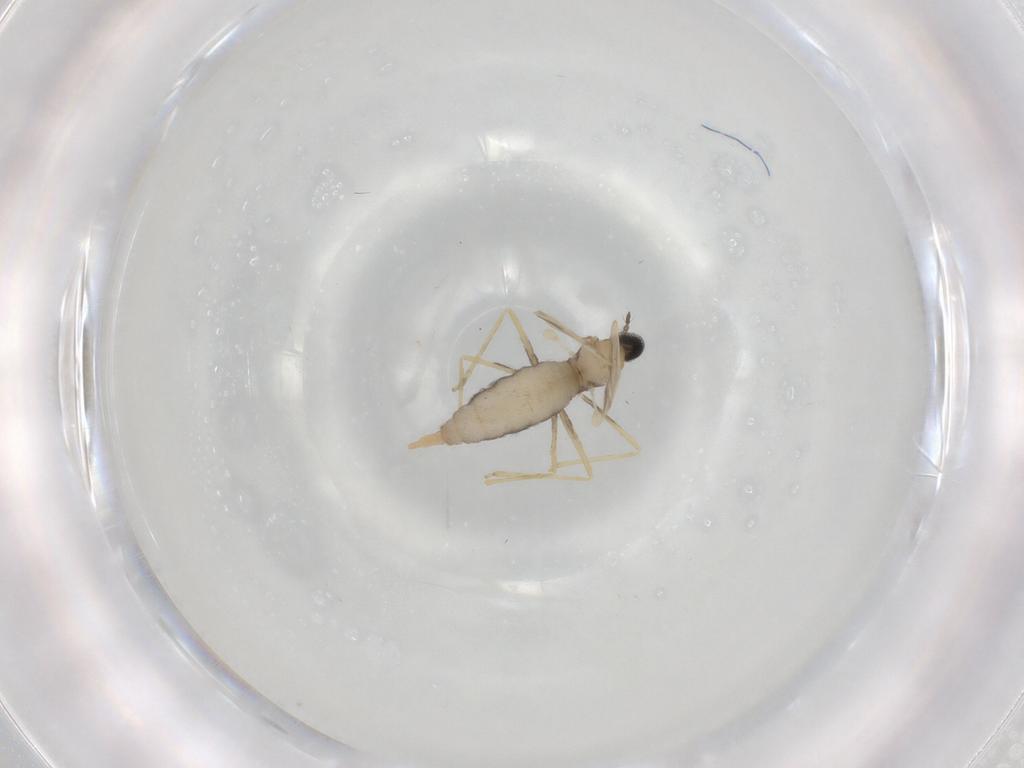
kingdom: Animalia
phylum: Arthropoda
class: Insecta
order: Diptera
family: Cecidomyiidae
